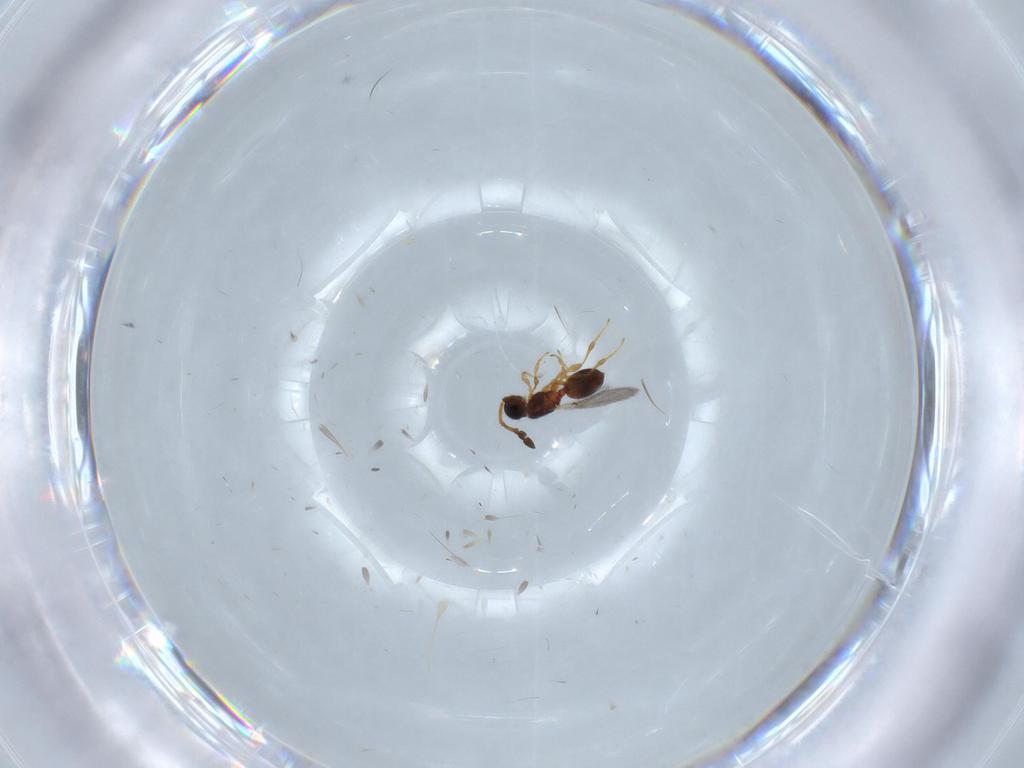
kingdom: Animalia
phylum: Arthropoda
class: Insecta
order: Hymenoptera
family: Diapriidae
